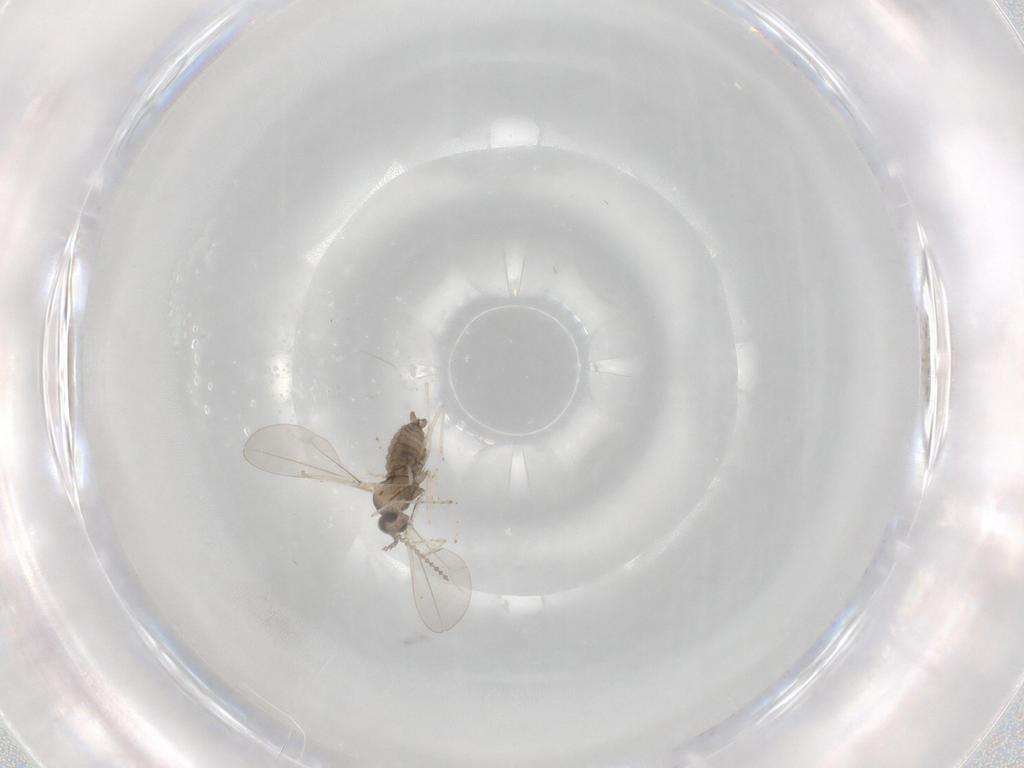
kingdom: Animalia
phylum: Arthropoda
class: Insecta
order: Diptera
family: Cecidomyiidae
